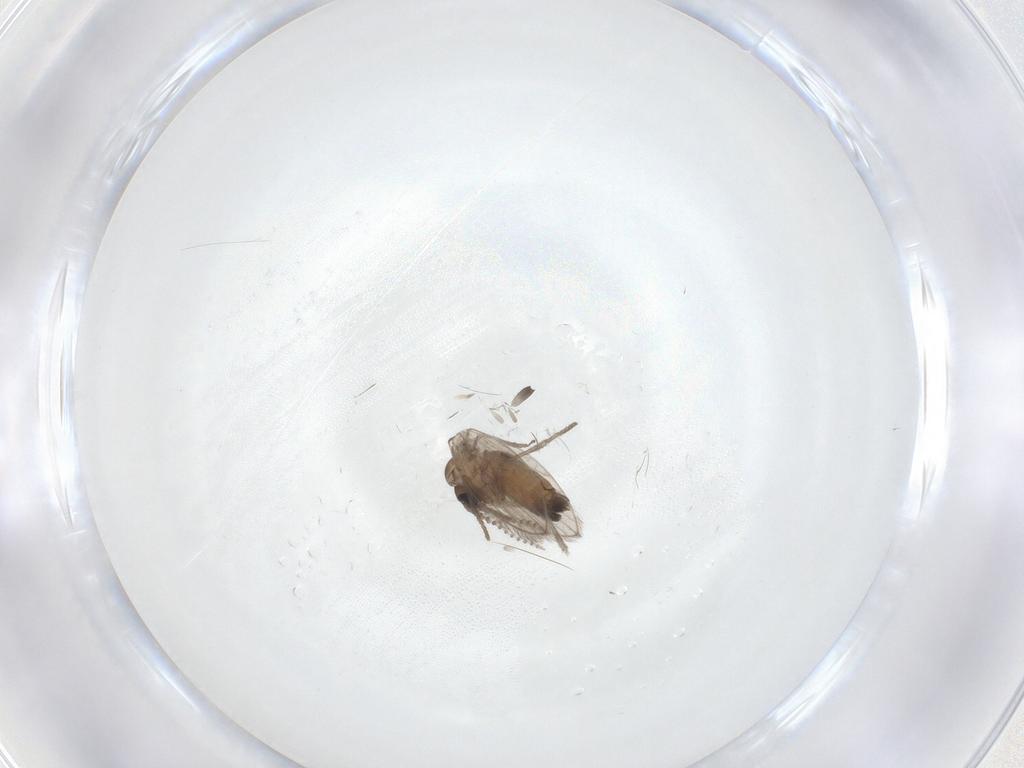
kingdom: Animalia
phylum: Arthropoda
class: Insecta
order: Diptera
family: Psychodidae
